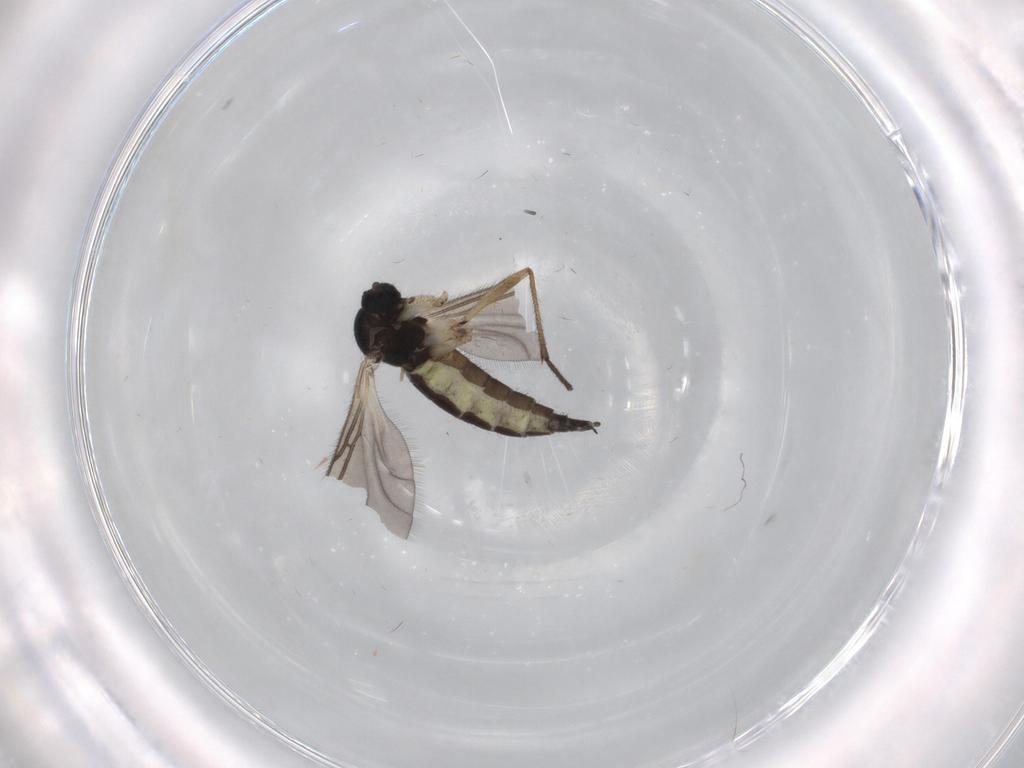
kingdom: Animalia
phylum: Arthropoda
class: Insecta
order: Diptera
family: Sciaridae
